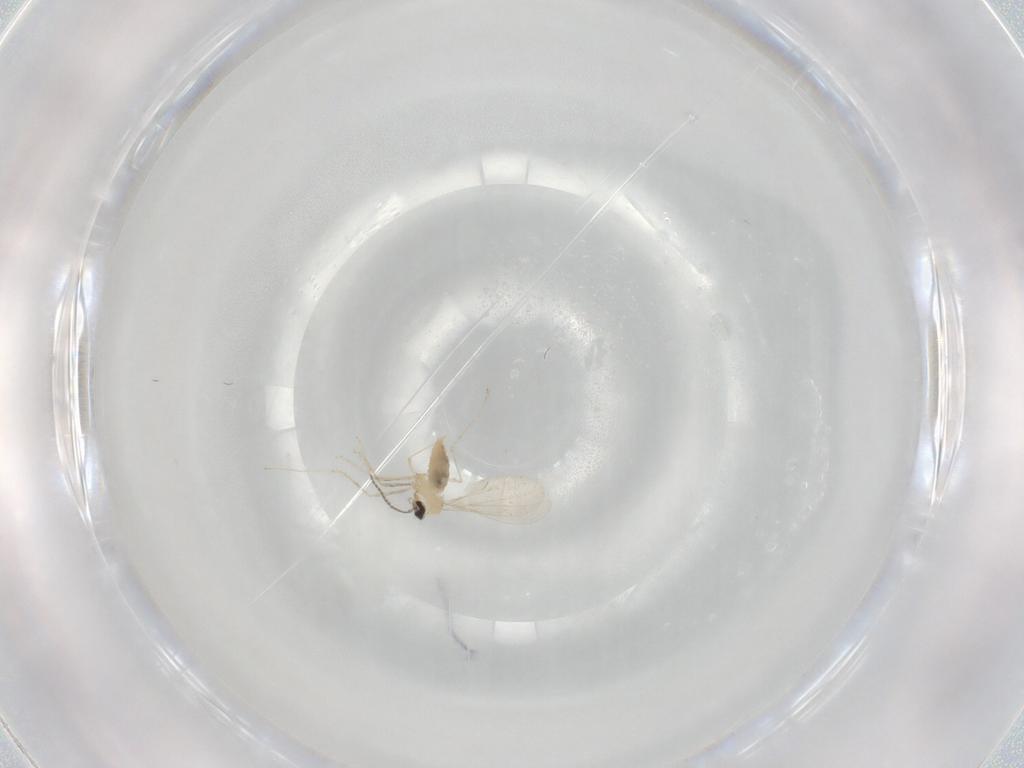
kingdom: Animalia
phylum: Arthropoda
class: Insecta
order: Diptera
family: Cecidomyiidae
